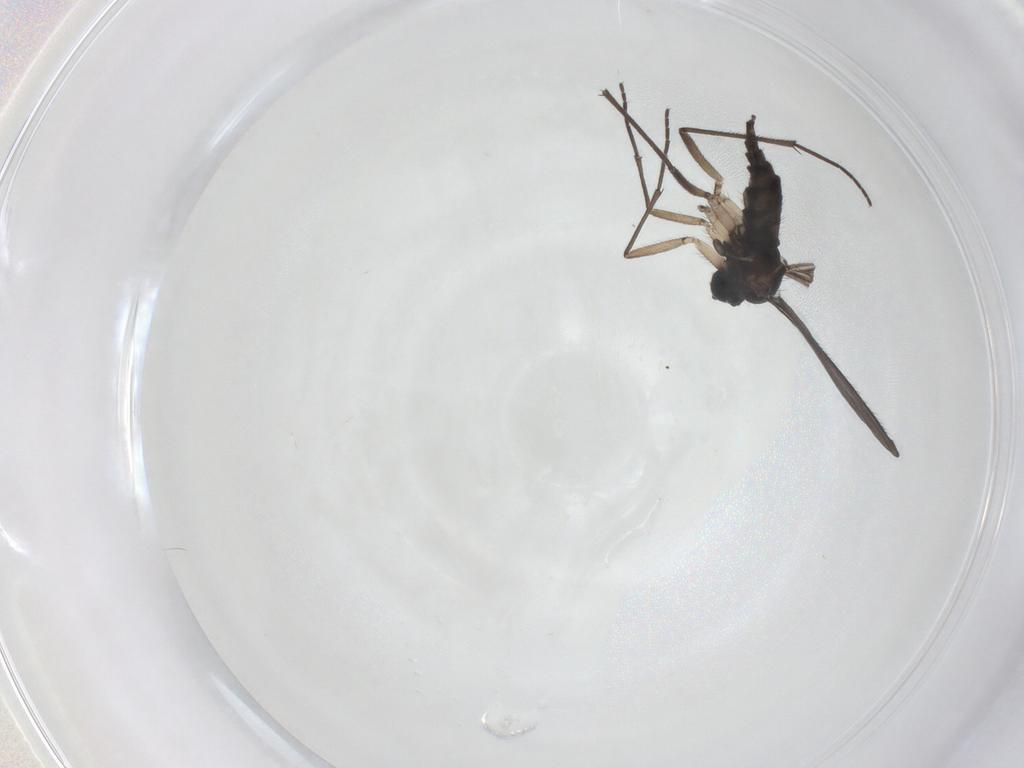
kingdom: Animalia
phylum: Arthropoda
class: Insecta
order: Diptera
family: Sciaridae
